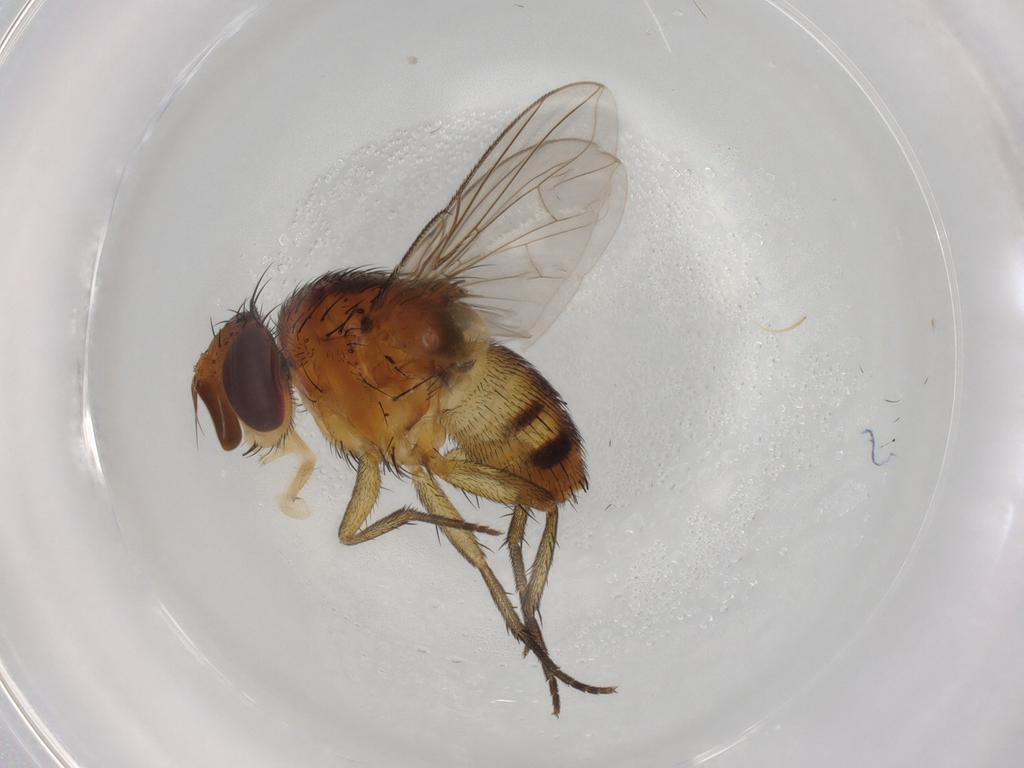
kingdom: Animalia
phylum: Arthropoda
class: Insecta
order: Diptera
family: Tachinidae
